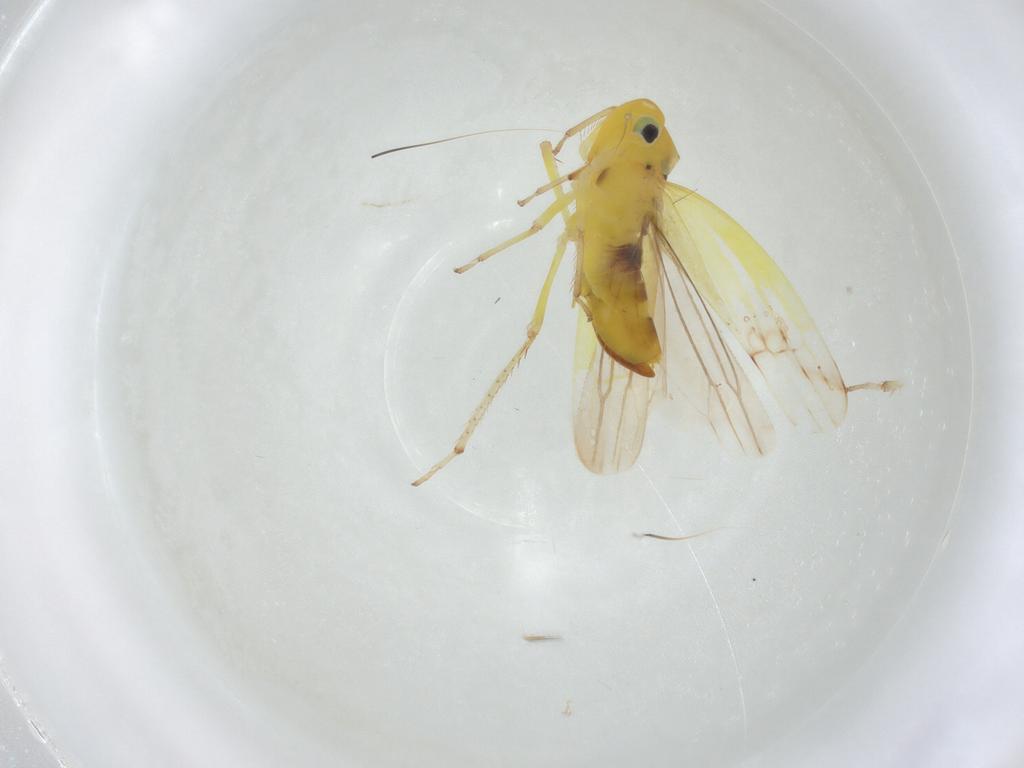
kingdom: Animalia
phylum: Arthropoda
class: Insecta
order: Hemiptera
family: Cicadellidae
